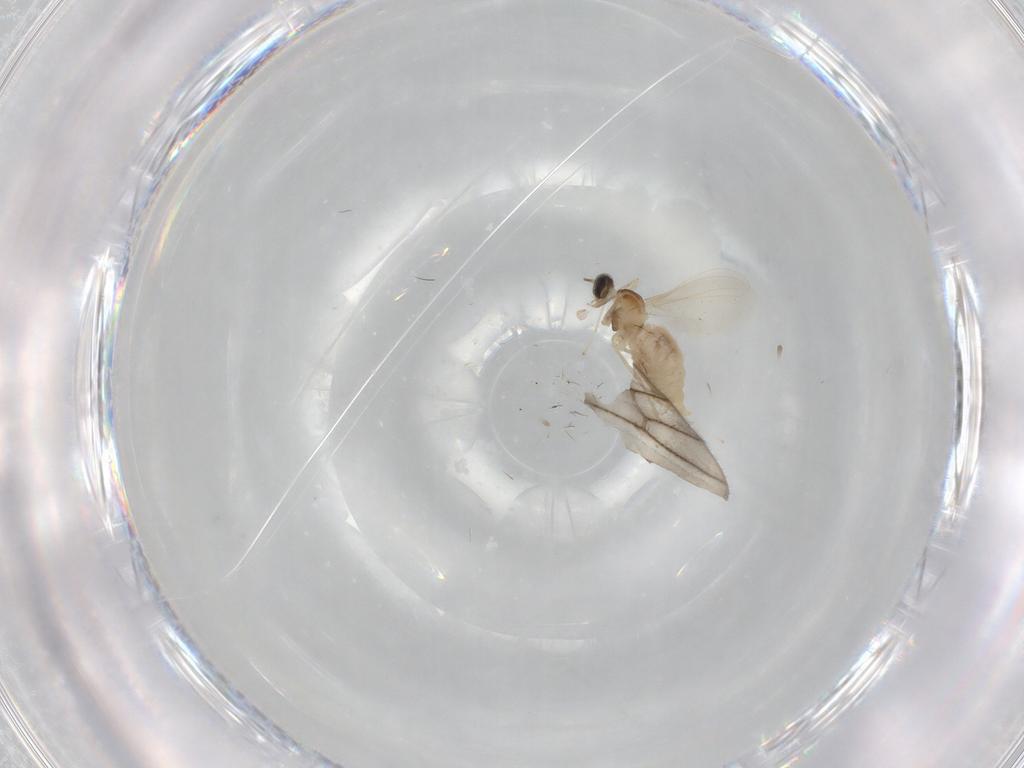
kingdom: Animalia
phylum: Arthropoda
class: Insecta
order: Diptera
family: Cecidomyiidae
